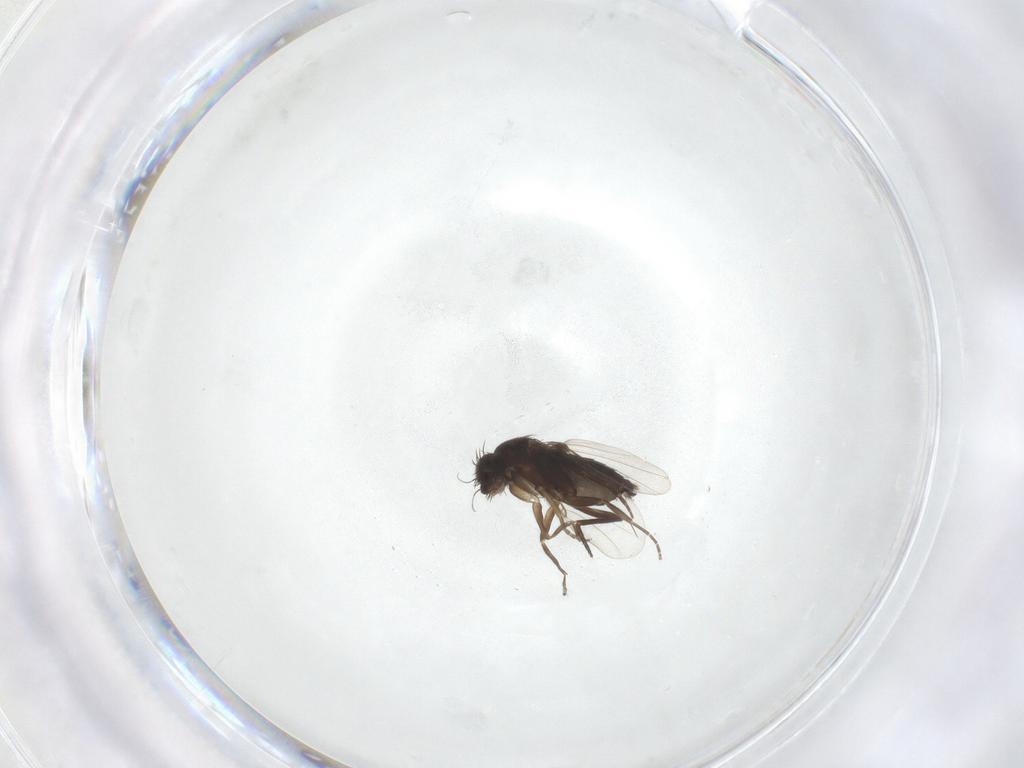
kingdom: Animalia
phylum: Arthropoda
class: Insecta
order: Diptera
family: Phoridae
